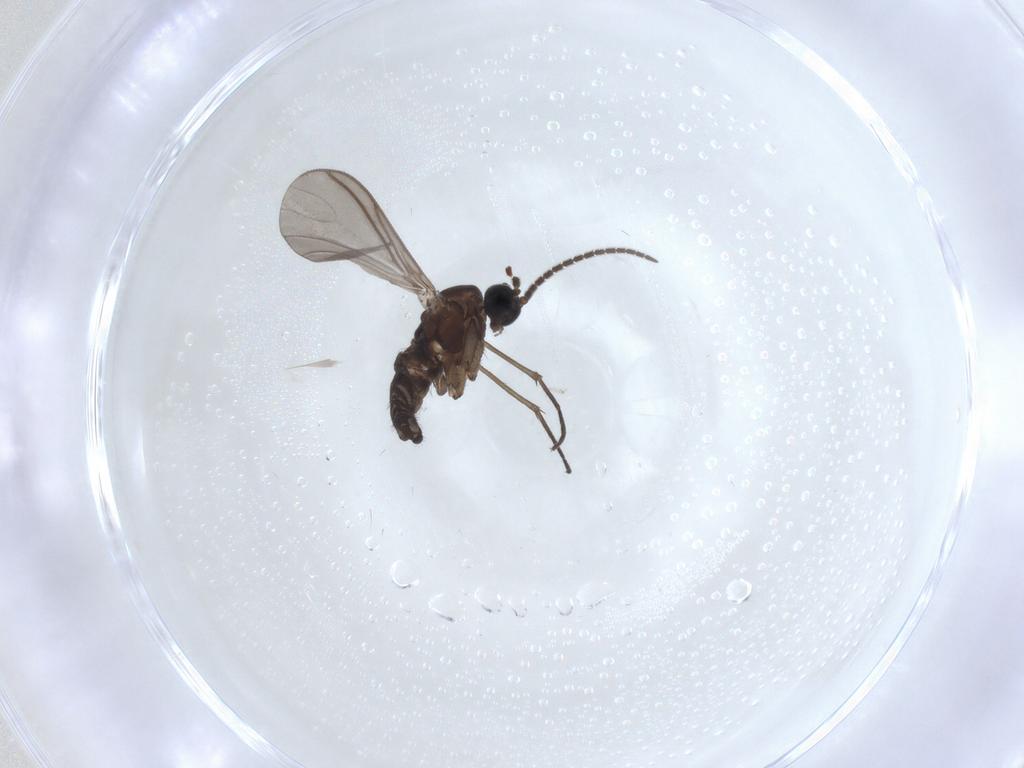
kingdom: Animalia
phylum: Arthropoda
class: Insecta
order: Diptera
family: Sciaridae
